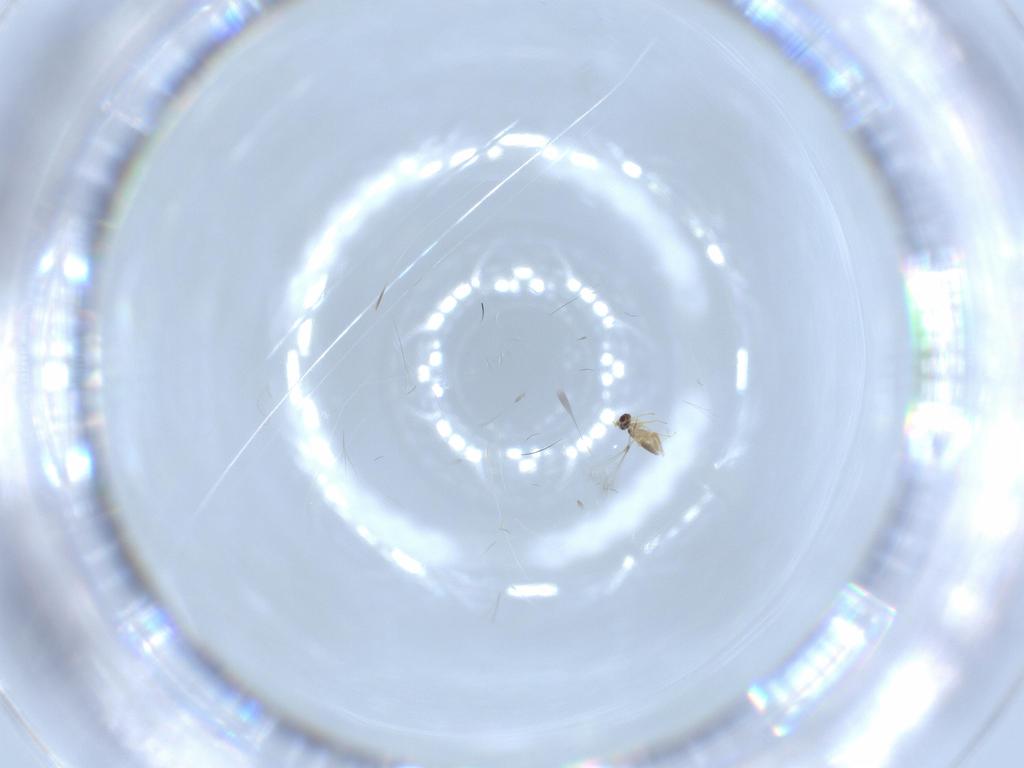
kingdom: Animalia
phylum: Arthropoda
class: Insecta
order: Hymenoptera
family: Mymaridae
